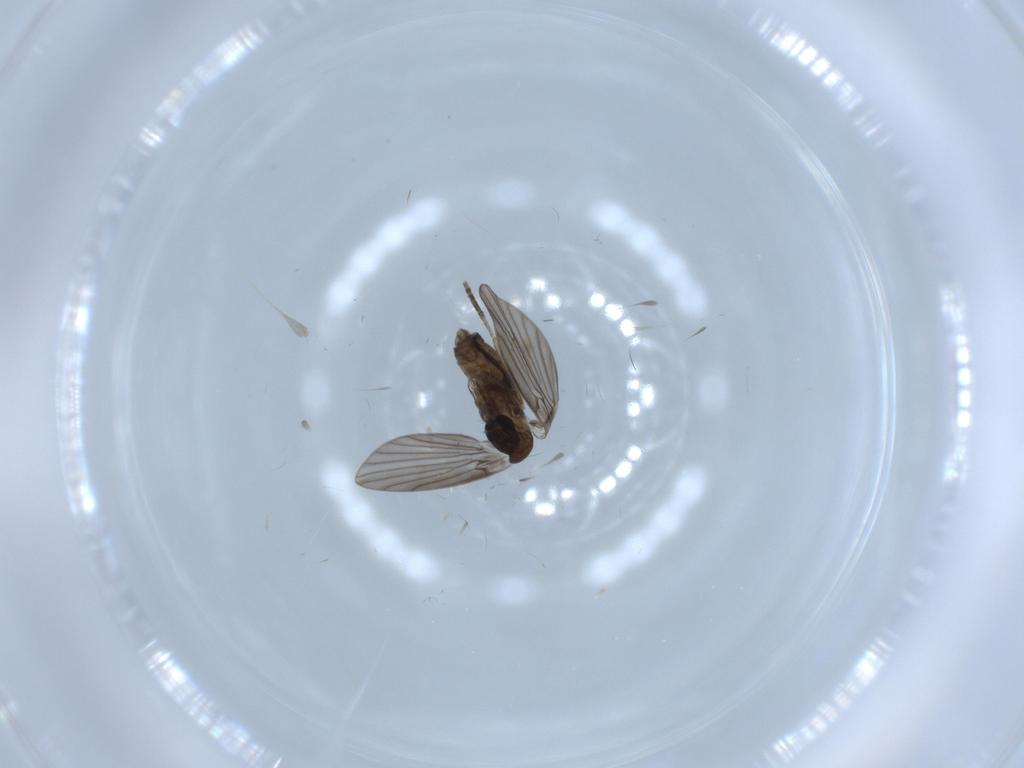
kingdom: Animalia
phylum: Arthropoda
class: Insecta
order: Diptera
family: Psychodidae
